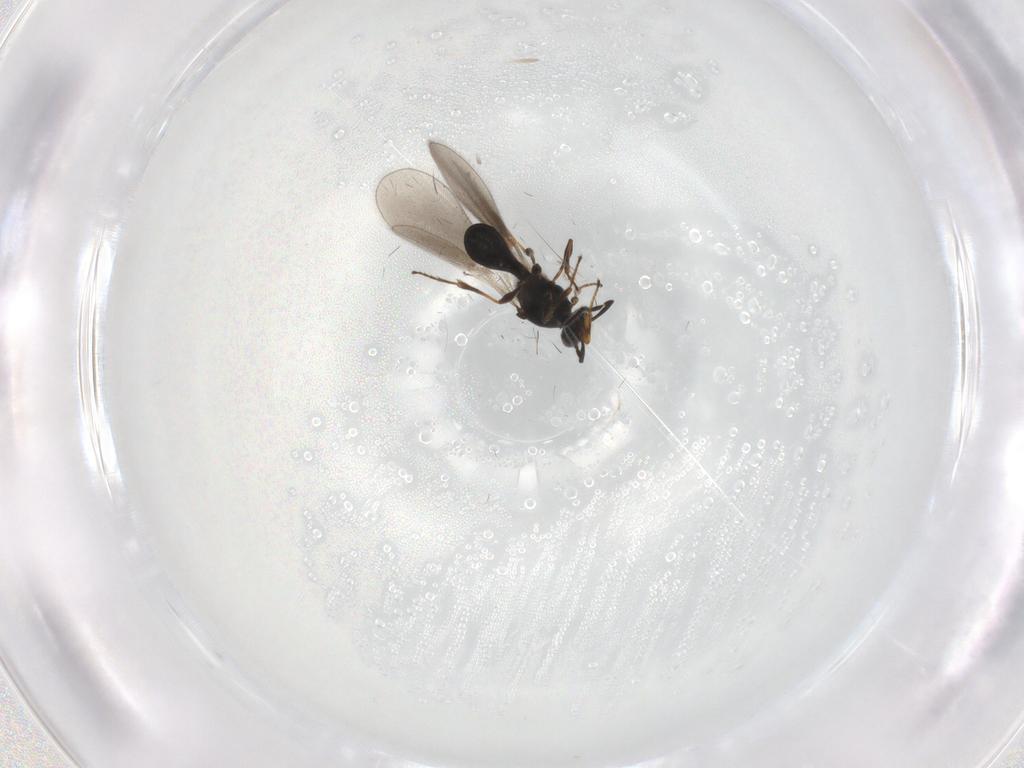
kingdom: Animalia
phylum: Arthropoda
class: Insecta
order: Hymenoptera
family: Platygastridae
